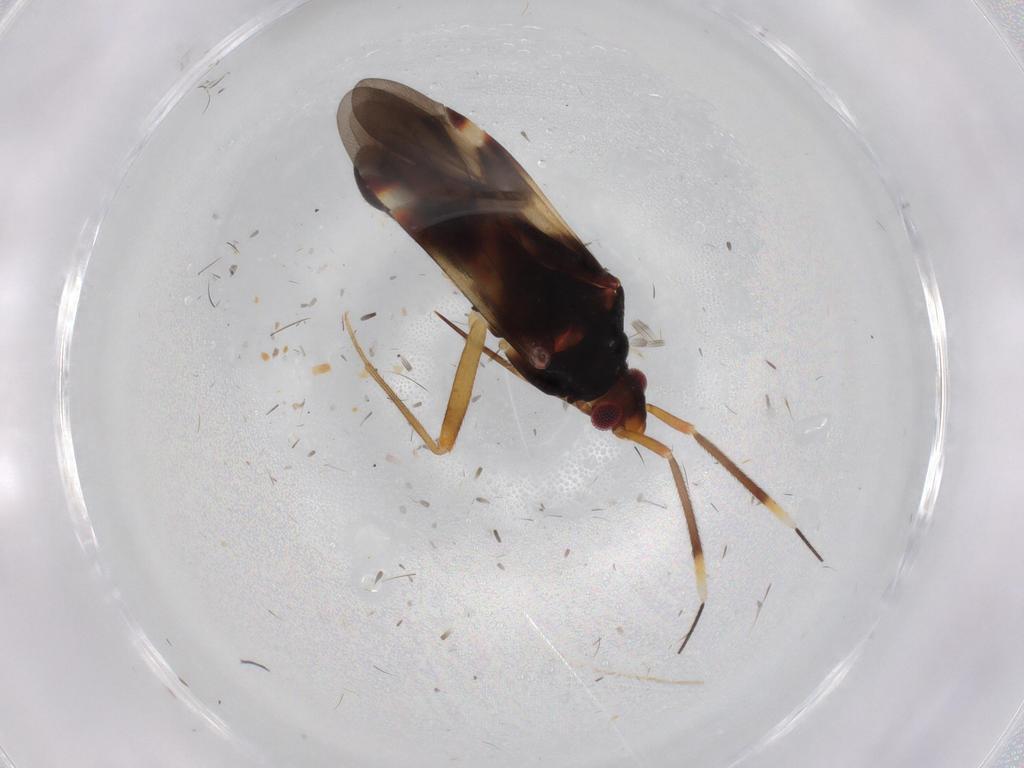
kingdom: Animalia
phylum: Arthropoda
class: Insecta
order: Hemiptera
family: Miridae
